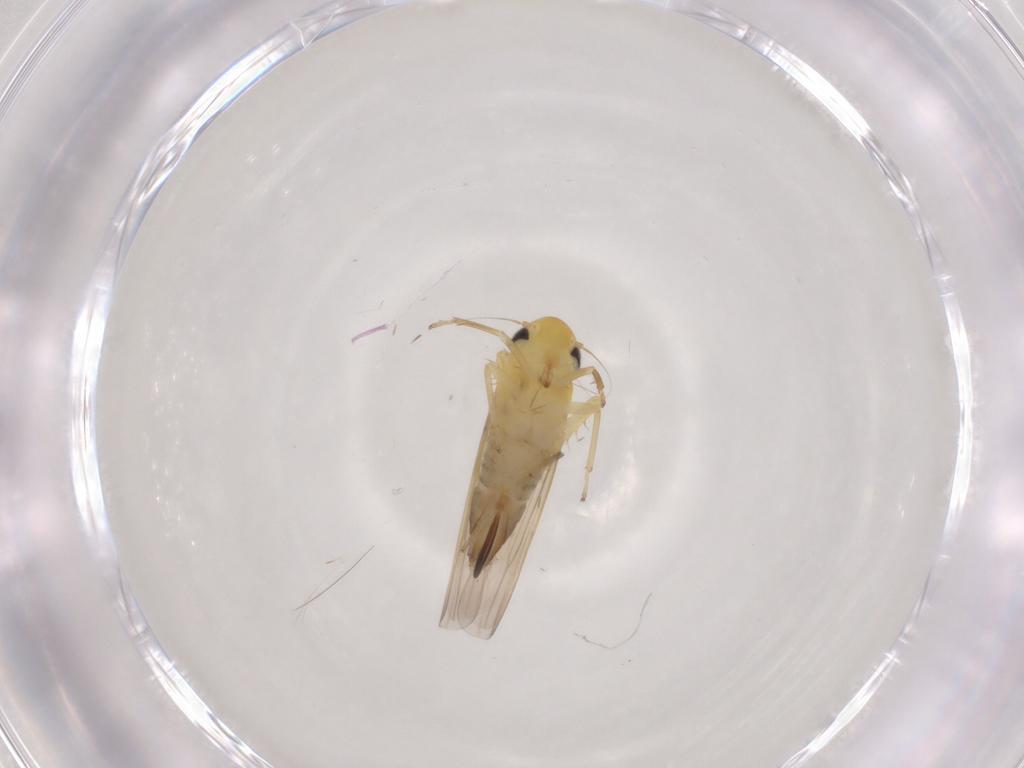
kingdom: Animalia
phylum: Arthropoda
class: Insecta
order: Hemiptera
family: Cicadellidae
